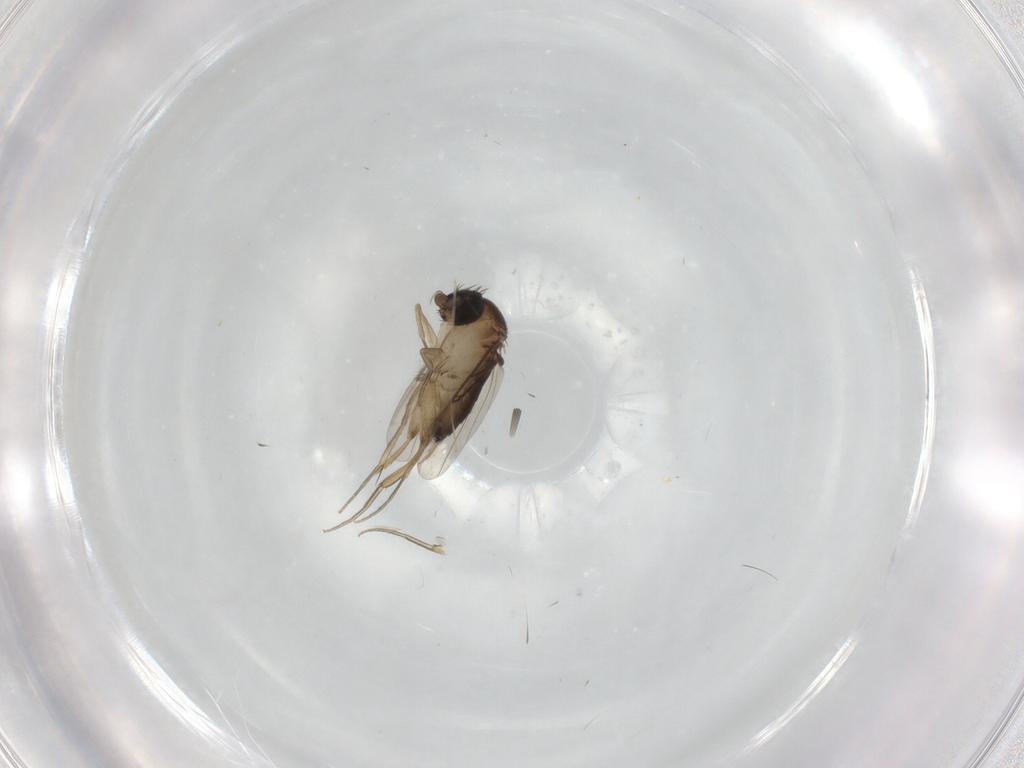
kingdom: Animalia
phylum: Arthropoda
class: Insecta
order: Diptera
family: Phoridae
